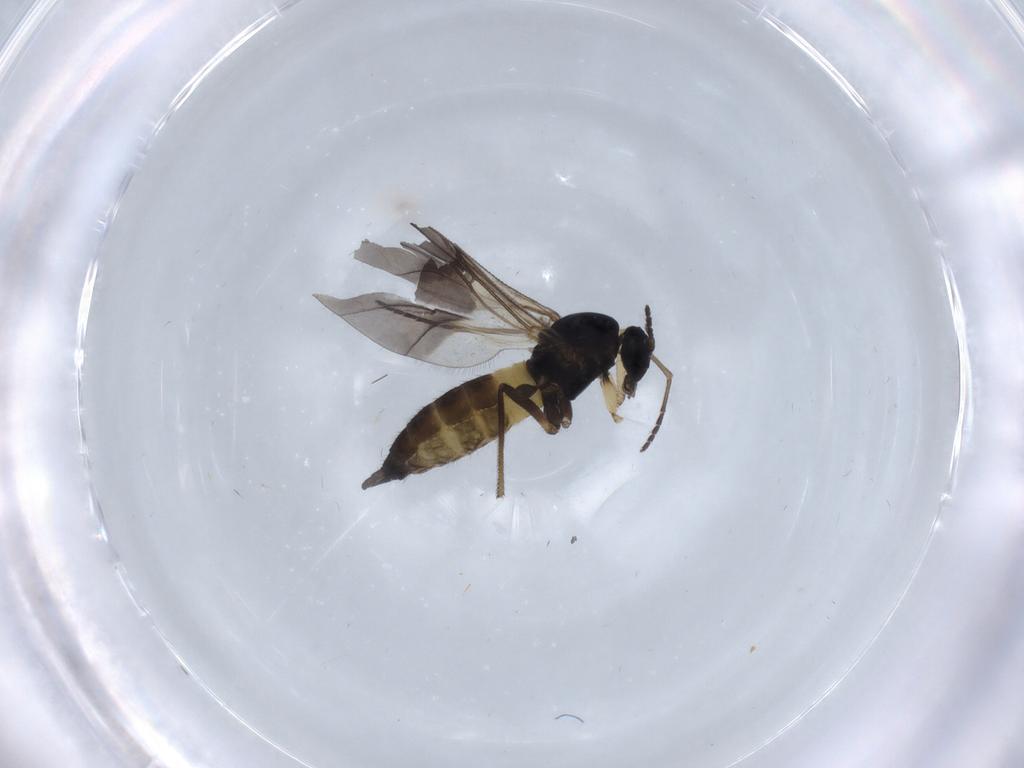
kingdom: Animalia
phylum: Arthropoda
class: Insecta
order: Diptera
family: Sciaridae
